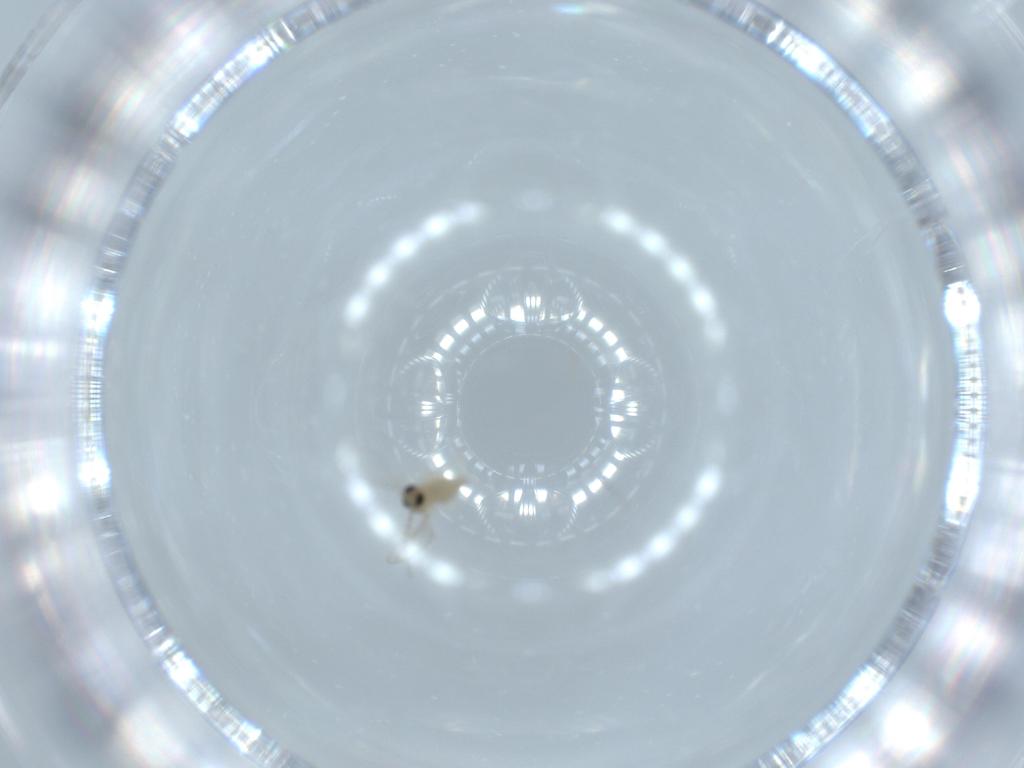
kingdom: Animalia
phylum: Arthropoda
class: Insecta
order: Diptera
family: Cecidomyiidae
